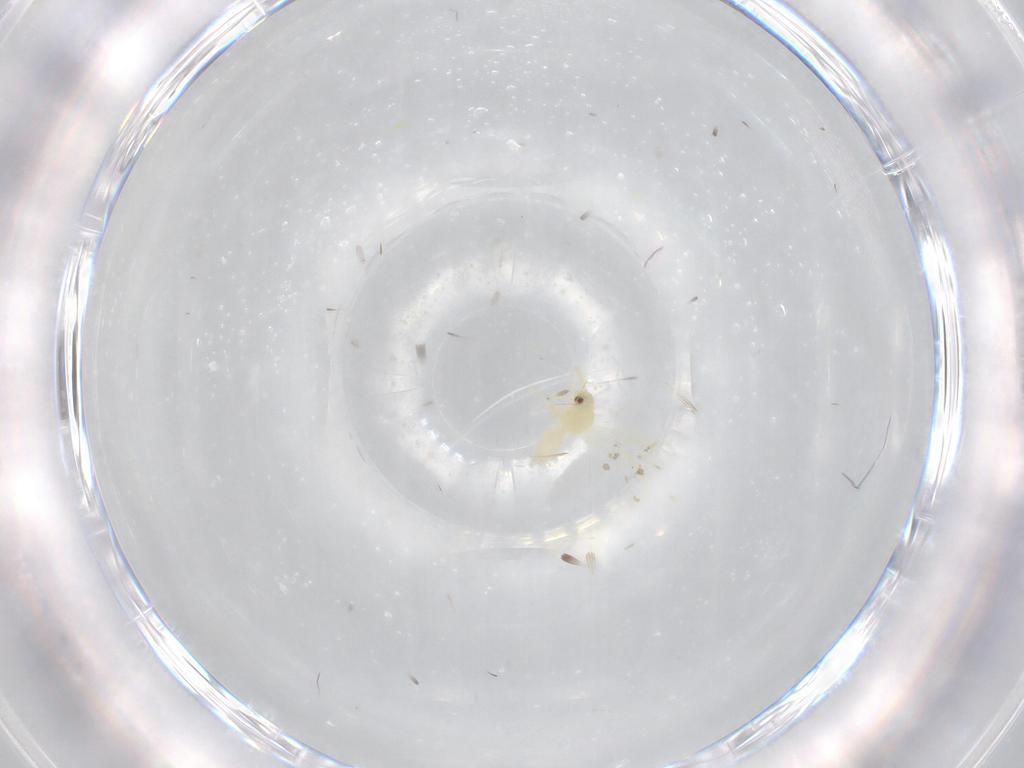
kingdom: Animalia
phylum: Arthropoda
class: Insecta
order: Hemiptera
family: Aleyrodidae
